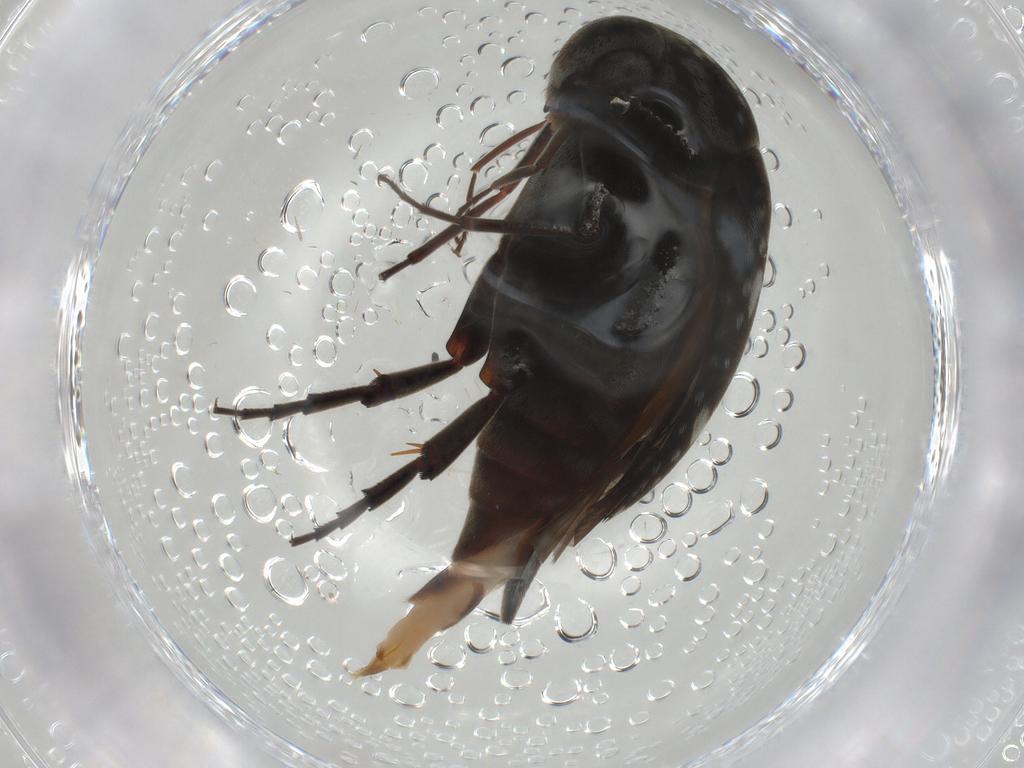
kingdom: Animalia
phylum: Arthropoda
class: Insecta
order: Coleoptera
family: Mordellidae
